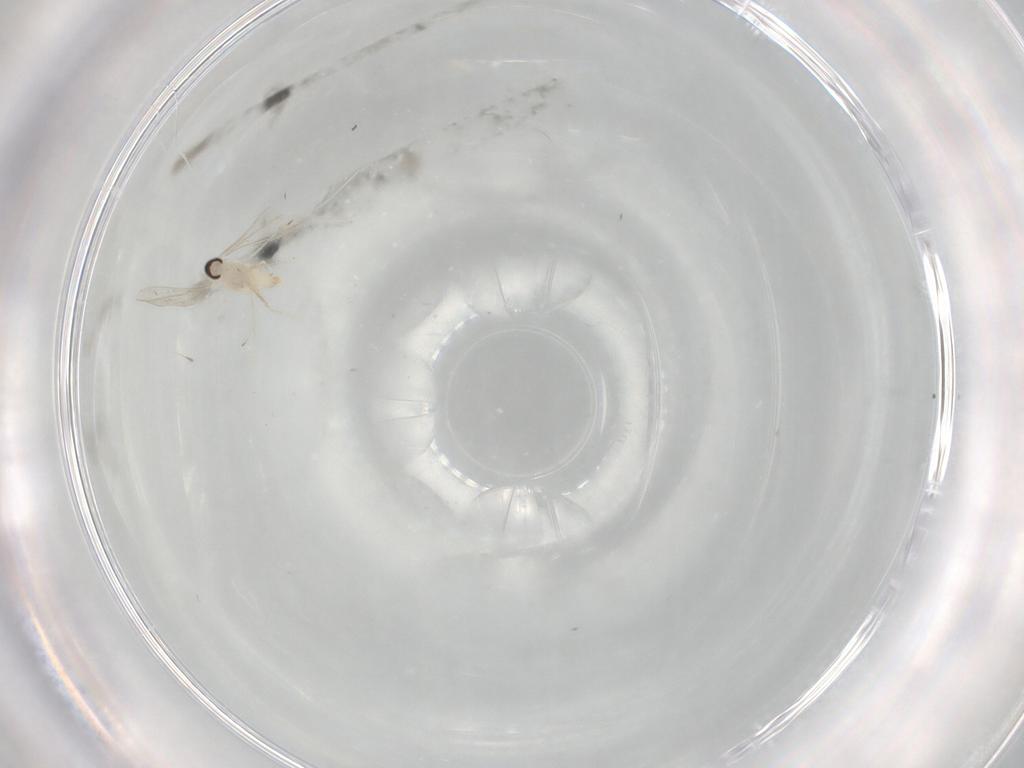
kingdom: Animalia
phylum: Arthropoda
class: Insecta
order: Diptera
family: Cecidomyiidae
